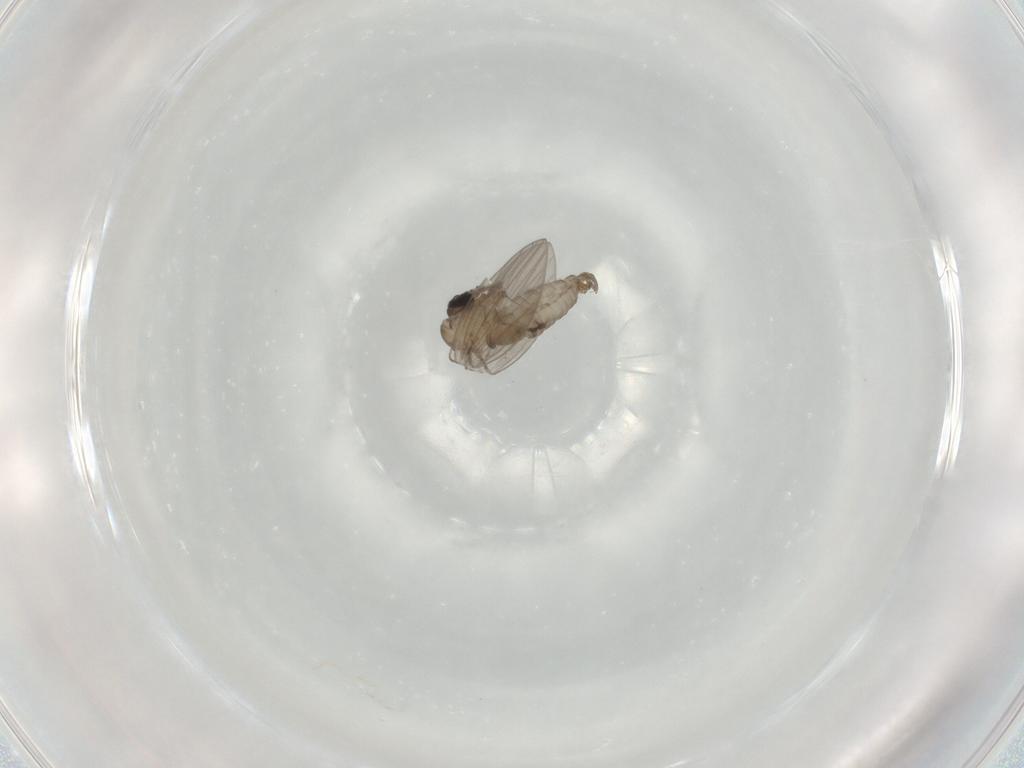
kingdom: Animalia
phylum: Arthropoda
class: Insecta
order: Diptera
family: Psychodidae
